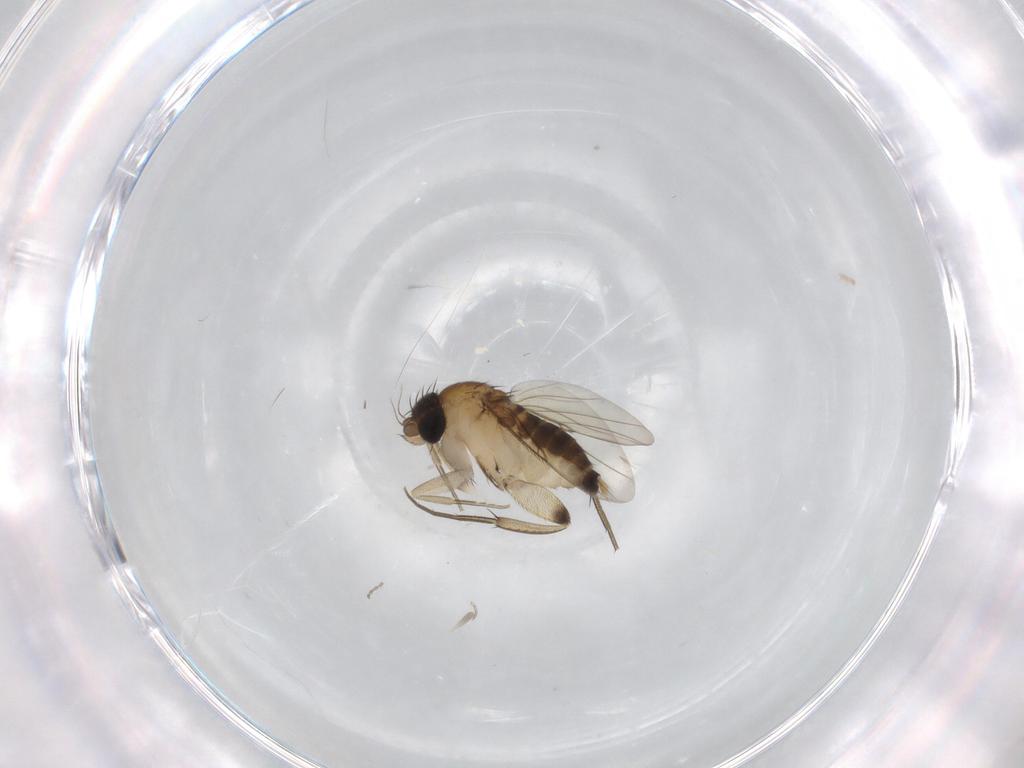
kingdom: Animalia
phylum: Arthropoda
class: Insecta
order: Diptera
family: Phoridae
